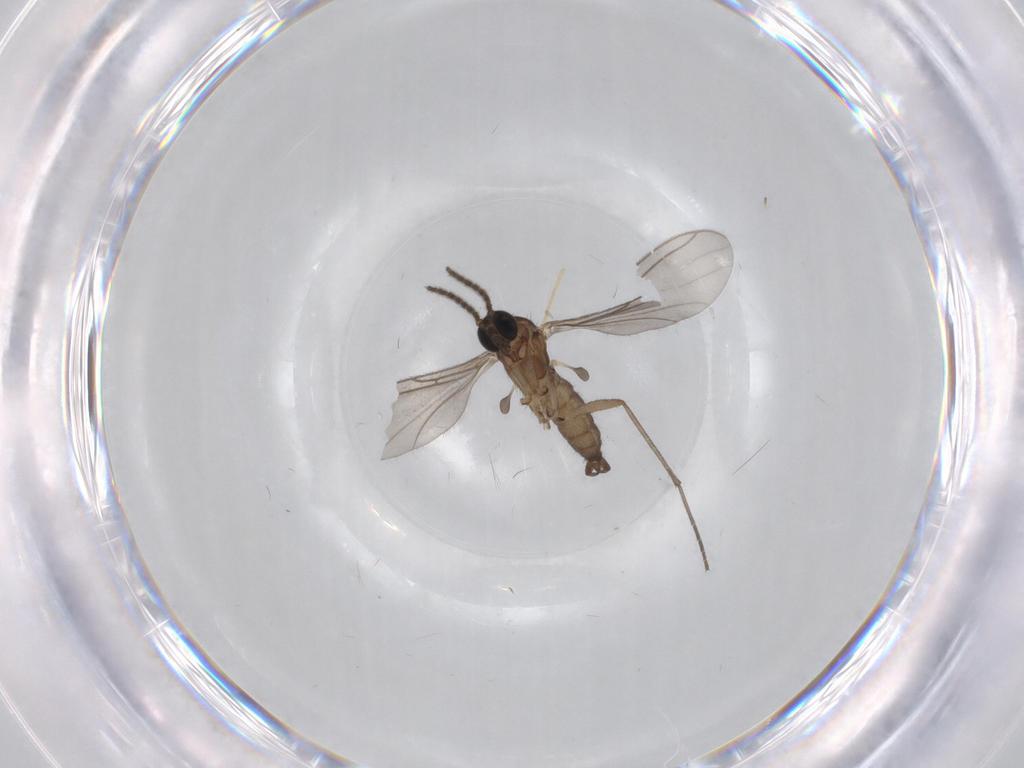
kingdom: Animalia
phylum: Arthropoda
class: Insecta
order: Diptera
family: Sciaridae
